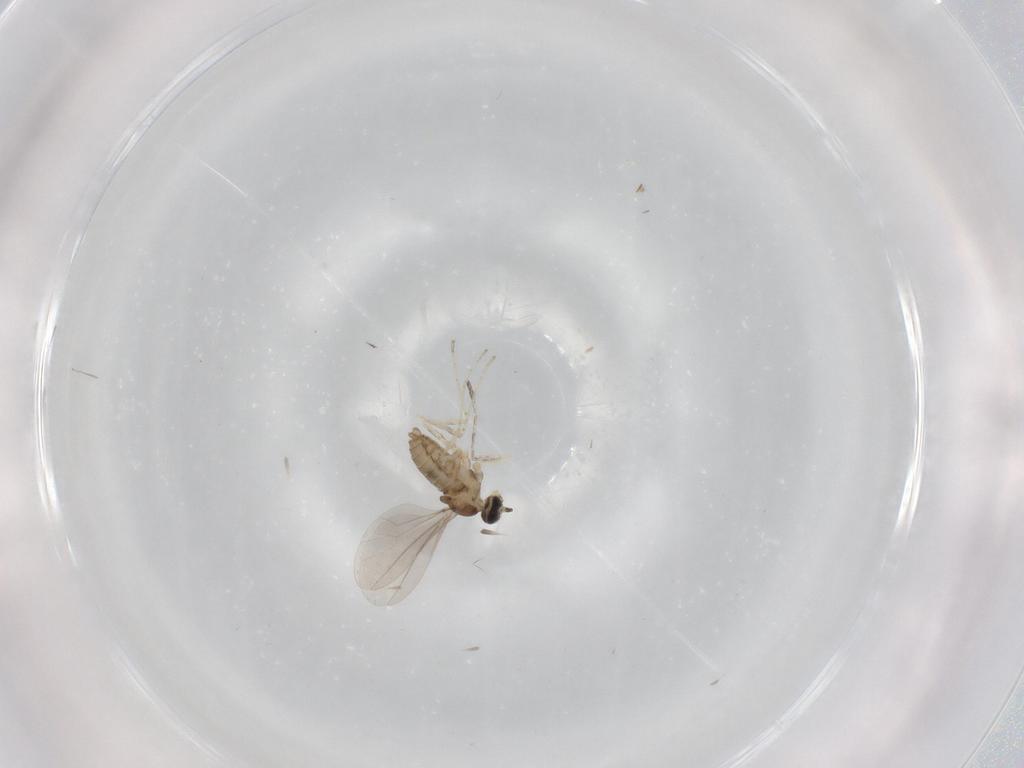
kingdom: Animalia
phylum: Arthropoda
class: Insecta
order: Diptera
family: Cecidomyiidae
